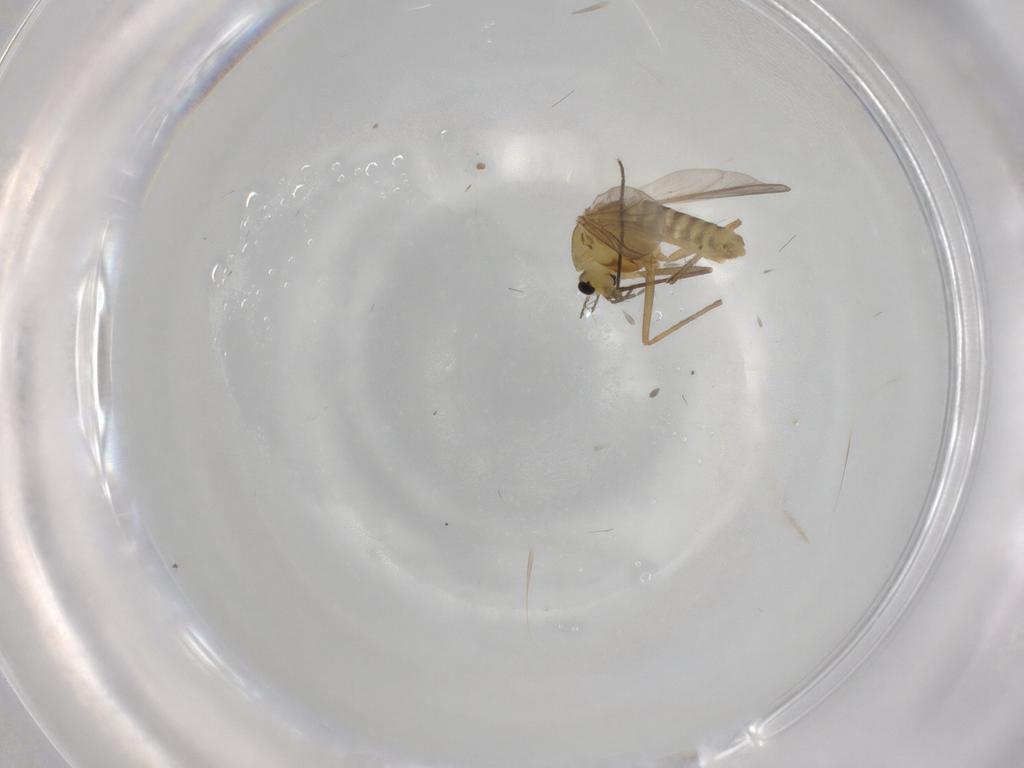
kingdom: Animalia
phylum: Arthropoda
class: Insecta
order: Diptera
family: Chironomidae
